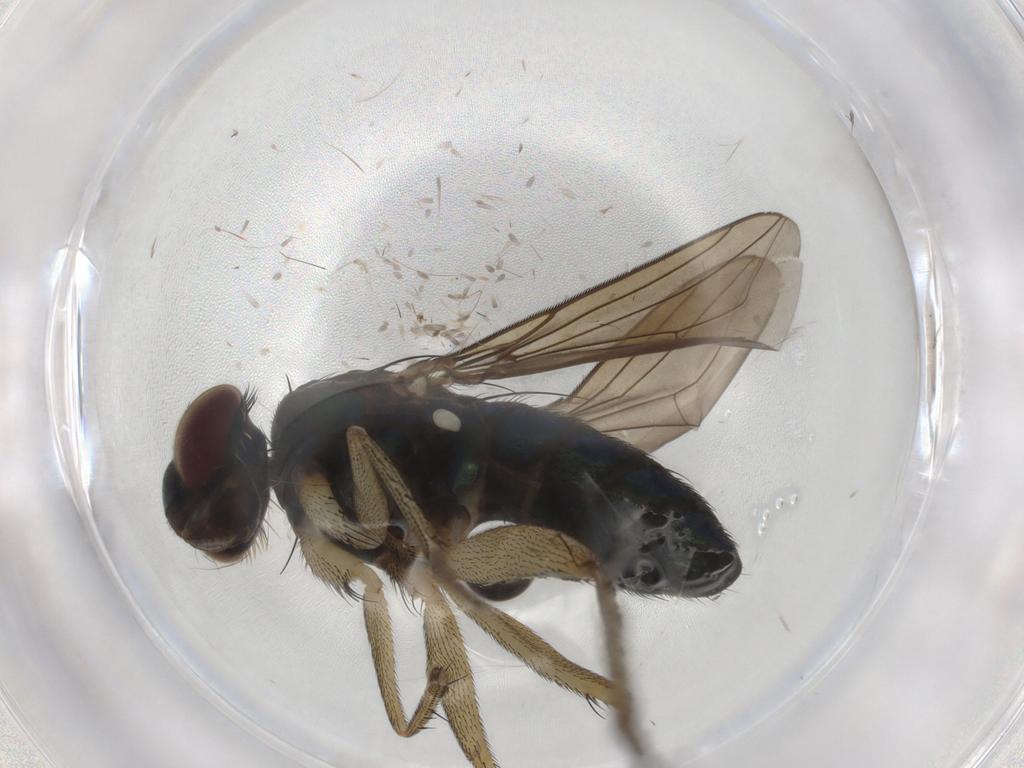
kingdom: Animalia
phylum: Arthropoda
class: Insecta
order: Diptera
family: Dolichopodidae
